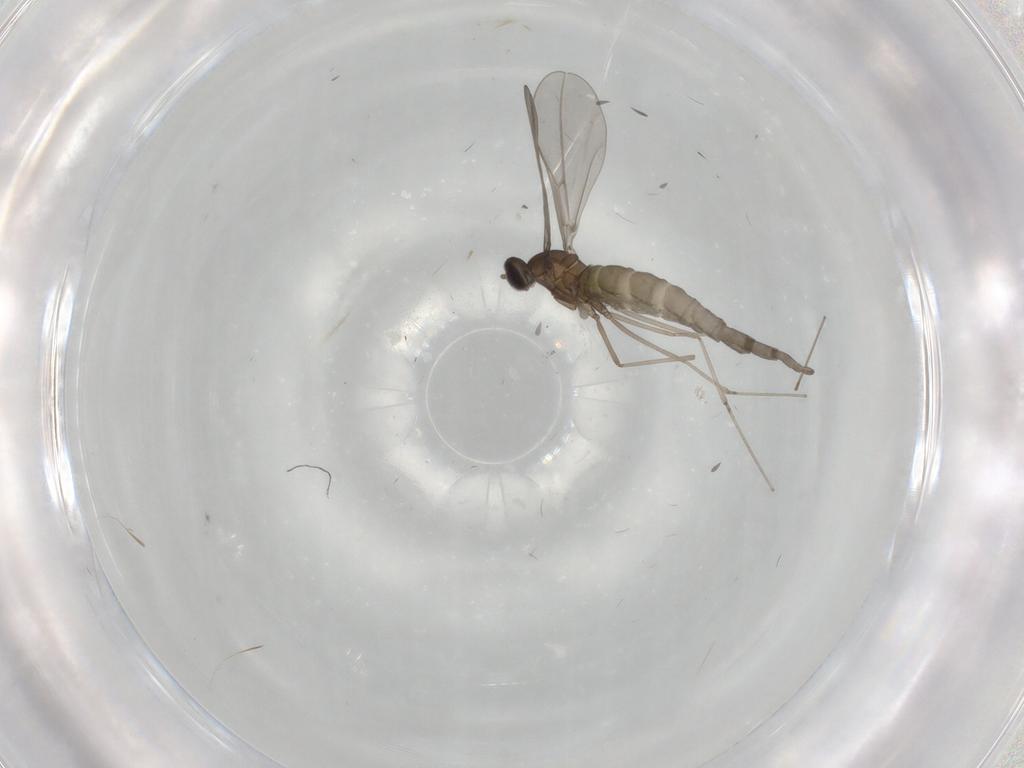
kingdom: Animalia
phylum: Arthropoda
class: Insecta
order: Diptera
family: Cecidomyiidae
